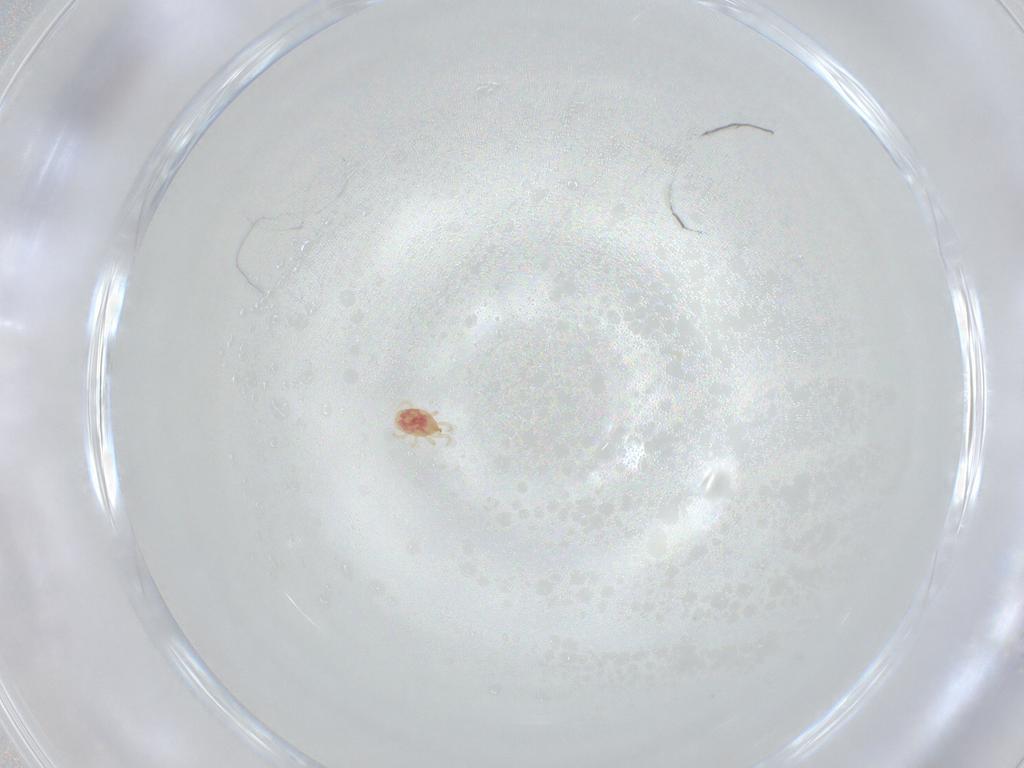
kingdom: Animalia
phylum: Arthropoda
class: Arachnida
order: Mesostigmata
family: Phytoseiidae
